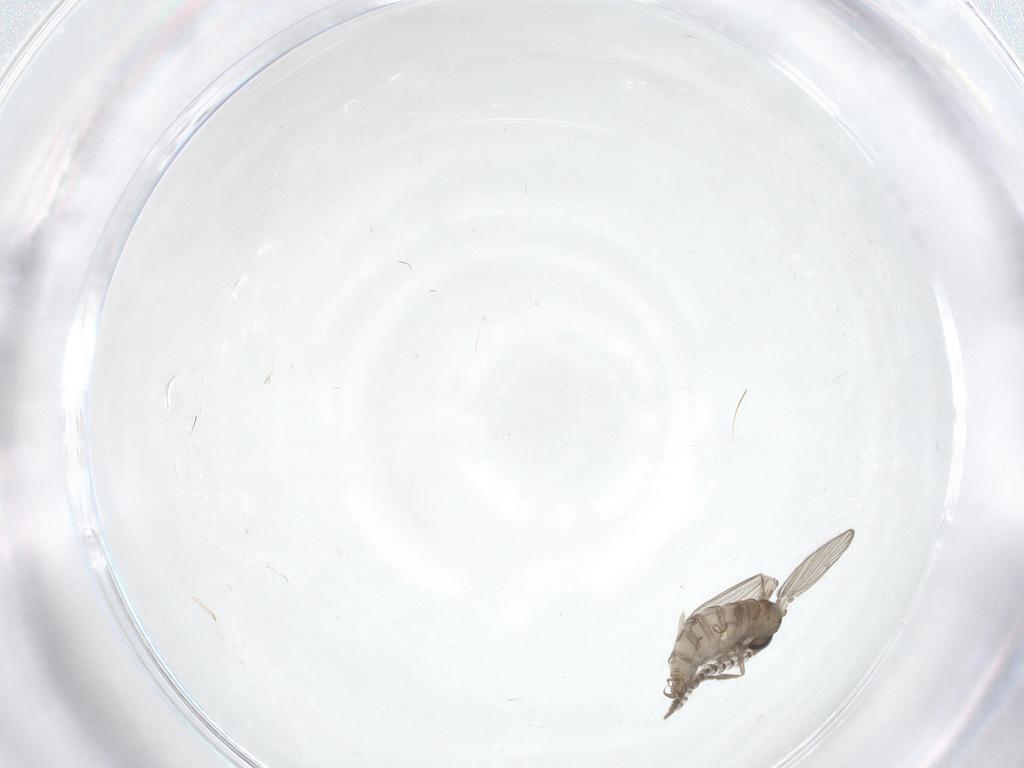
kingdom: Animalia
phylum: Arthropoda
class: Insecta
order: Diptera
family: Psychodidae
